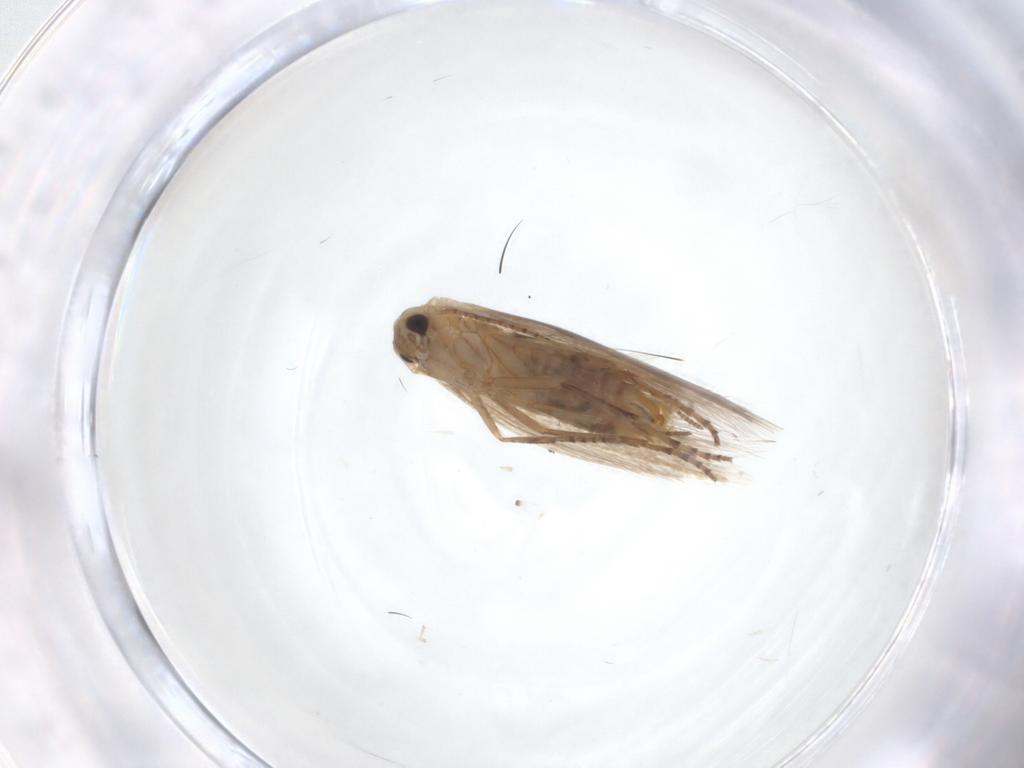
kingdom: Animalia
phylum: Arthropoda
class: Insecta
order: Lepidoptera
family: Bucculatricidae
